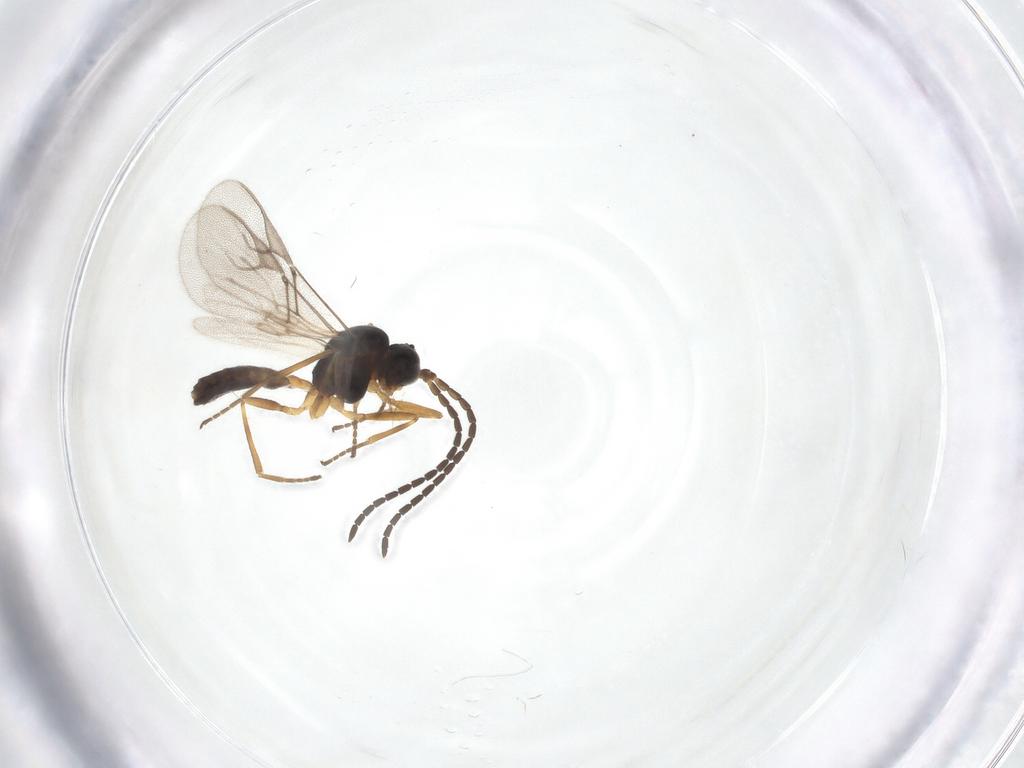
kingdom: Animalia
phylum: Arthropoda
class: Insecta
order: Hymenoptera
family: Braconidae
